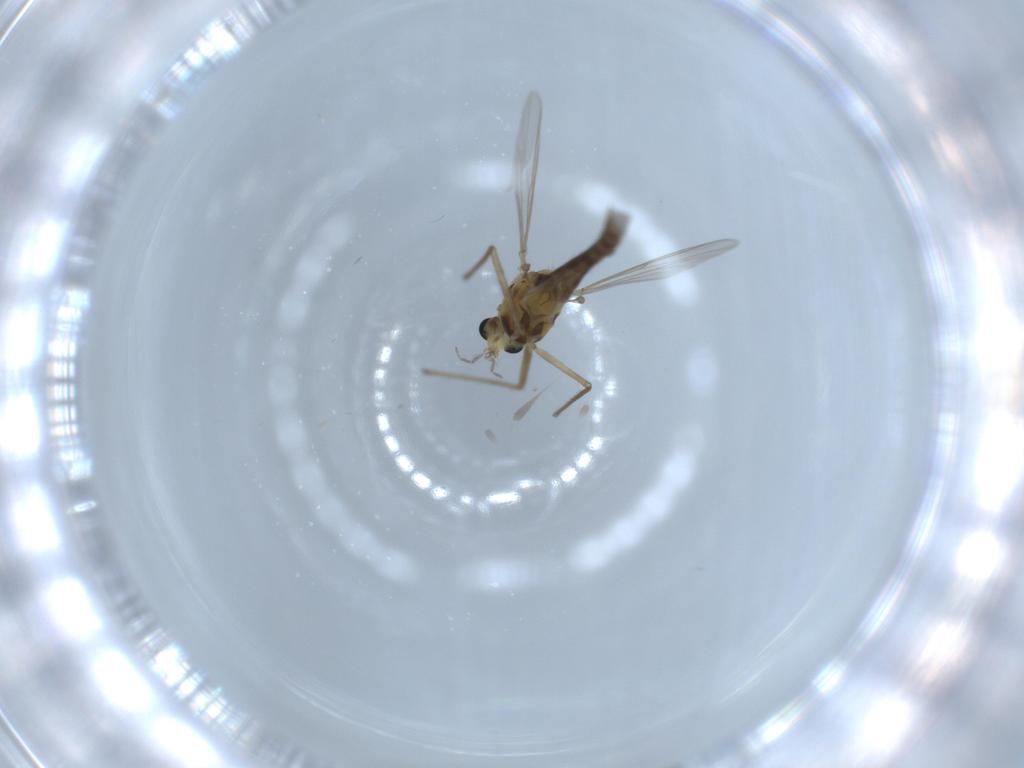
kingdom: Animalia
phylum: Arthropoda
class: Insecta
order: Diptera
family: Chironomidae
